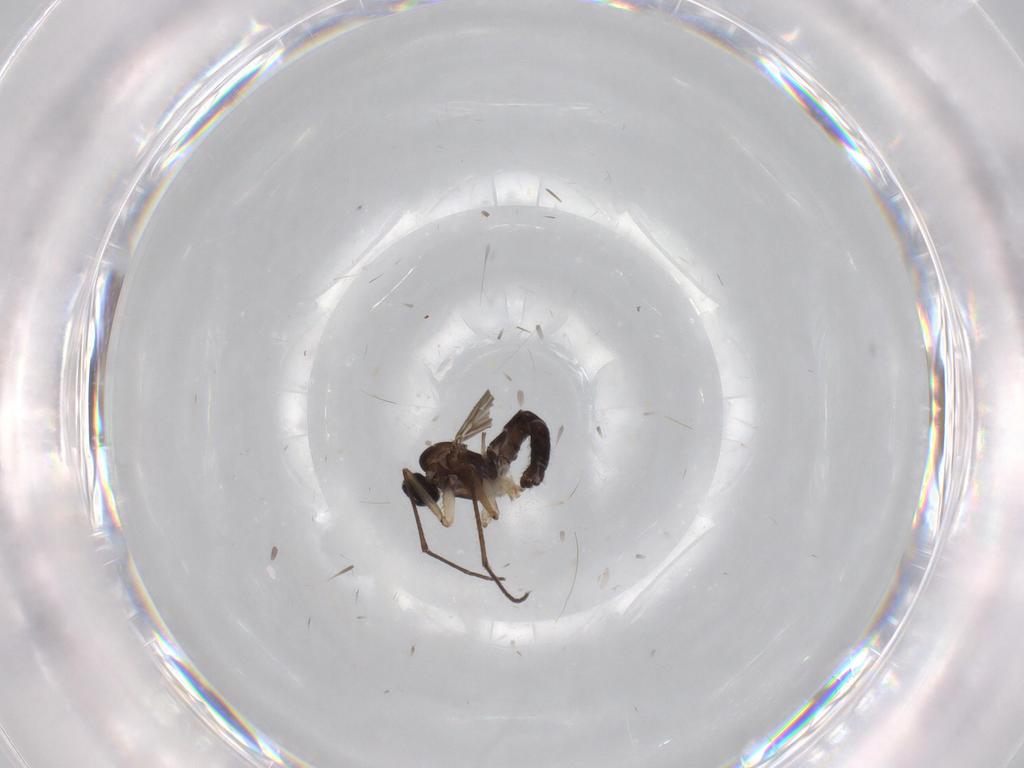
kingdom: Animalia
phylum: Arthropoda
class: Insecta
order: Diptera
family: Sciaridae
